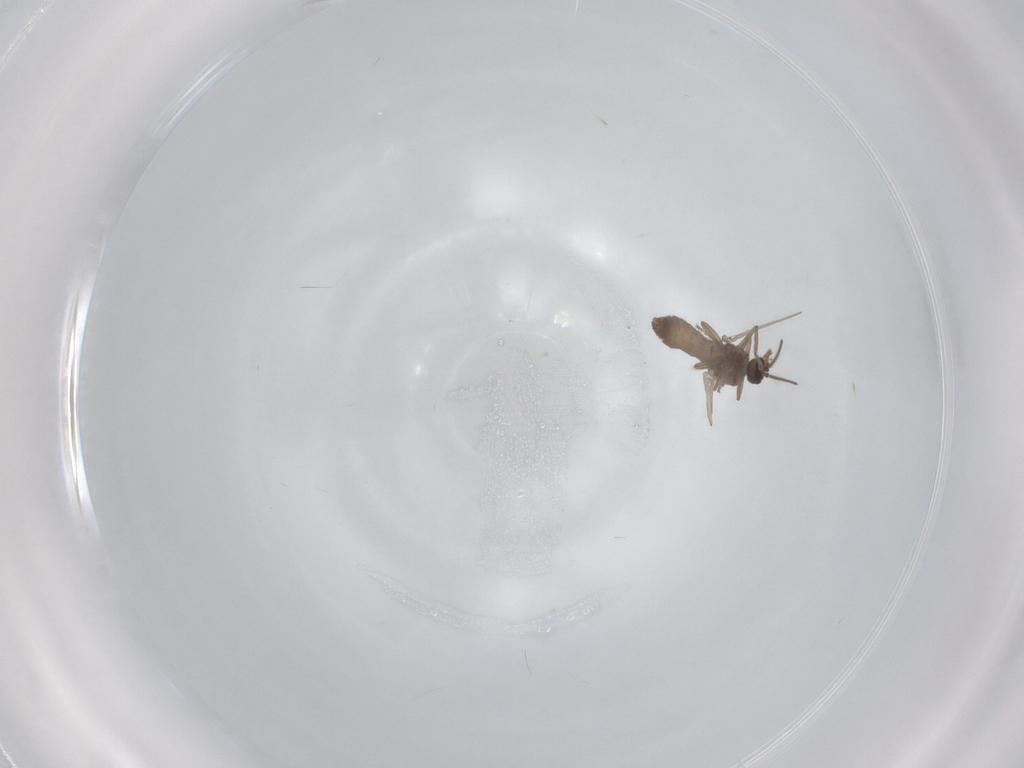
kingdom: Animalia
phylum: Arthropoda
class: Insecta
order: Diptera
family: Ceratopogonidae
